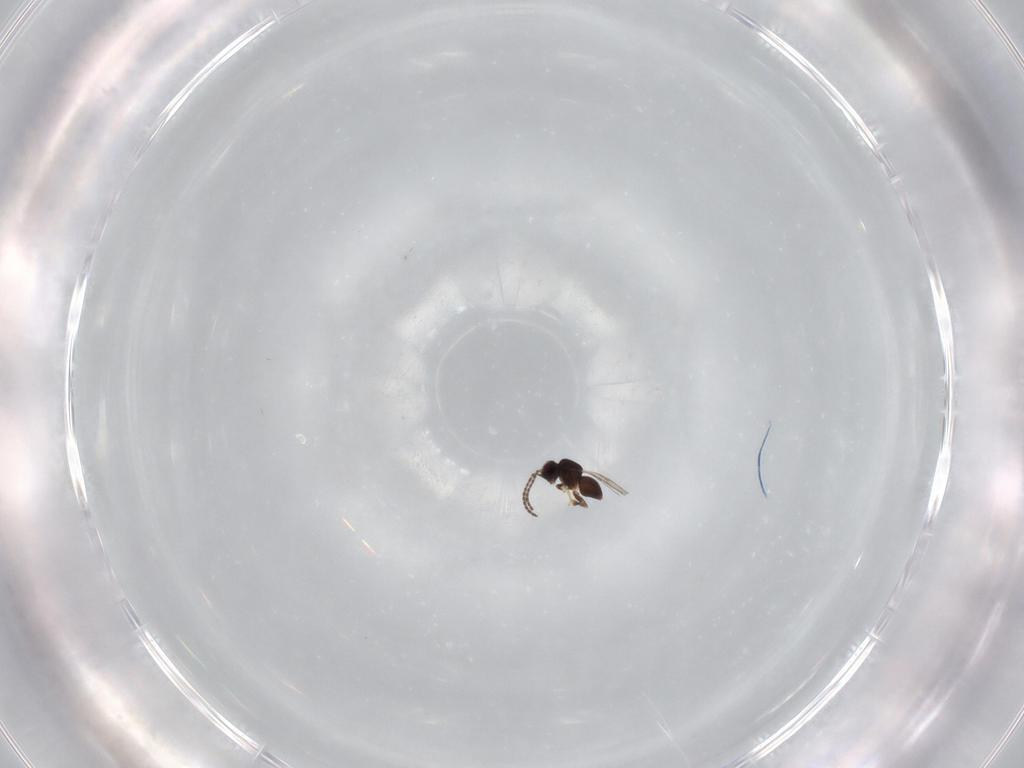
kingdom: Animalia
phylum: Arthropoda
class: Insecta
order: Hymenoptera
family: Ceraphronidae
